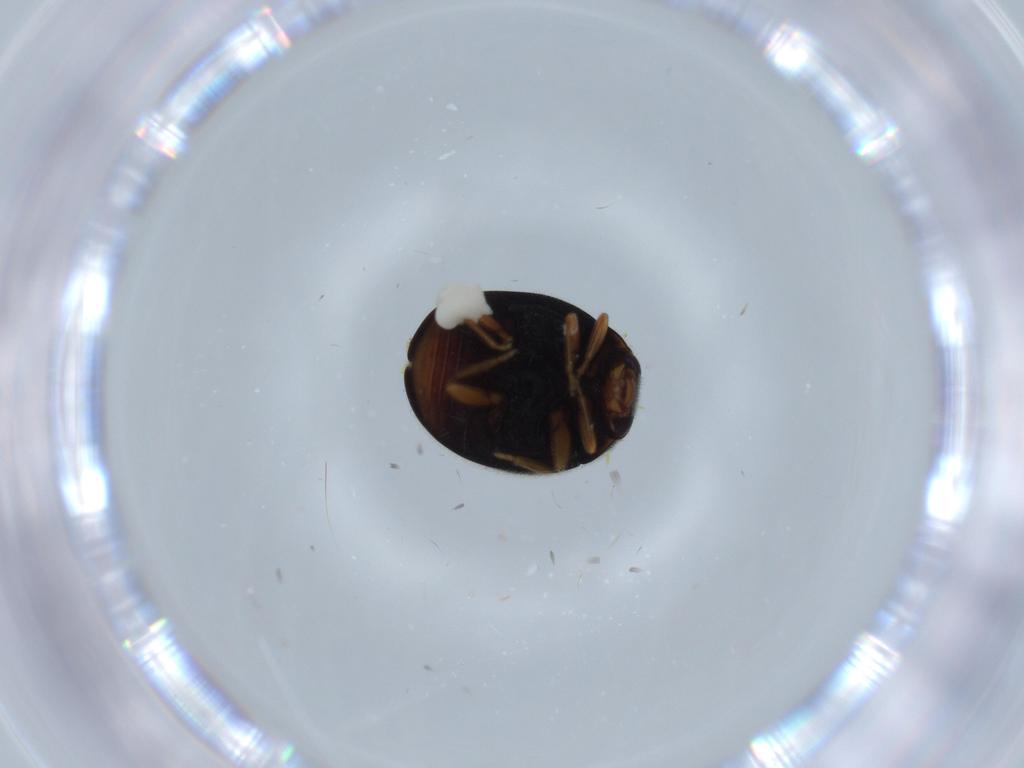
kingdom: Animalia
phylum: Arthropoda
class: Insecta
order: Coleoptera
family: Coccinellidae
